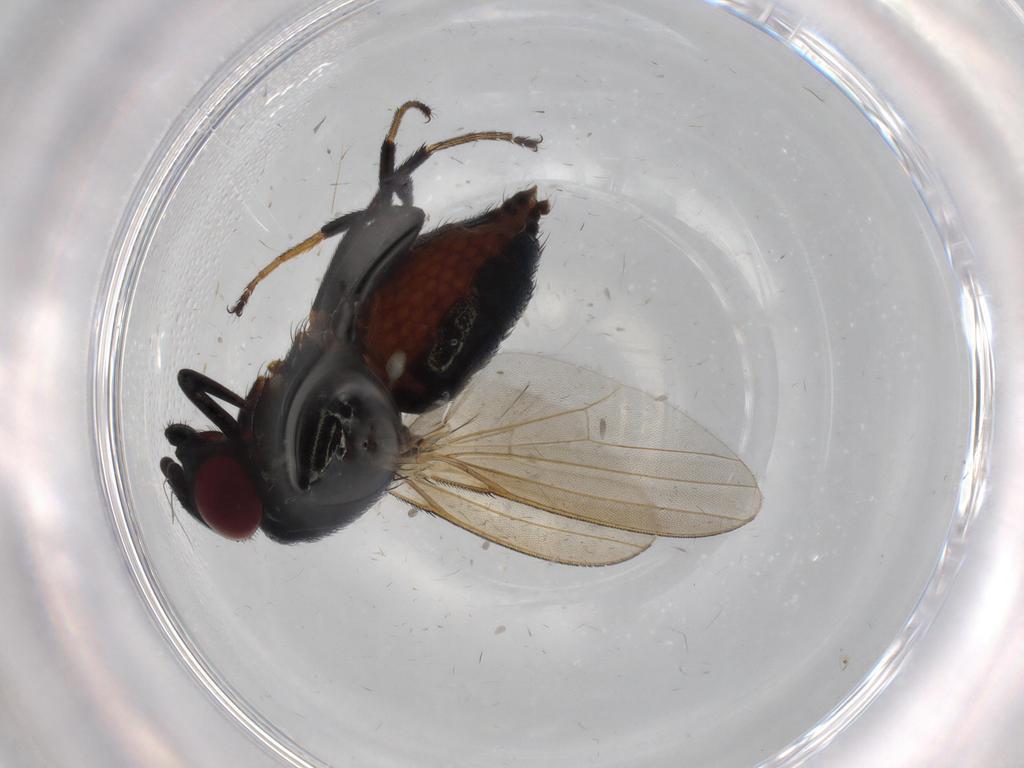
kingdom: Animalia
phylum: Arthropoda
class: Insecta
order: Diptera
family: Milichiidae
